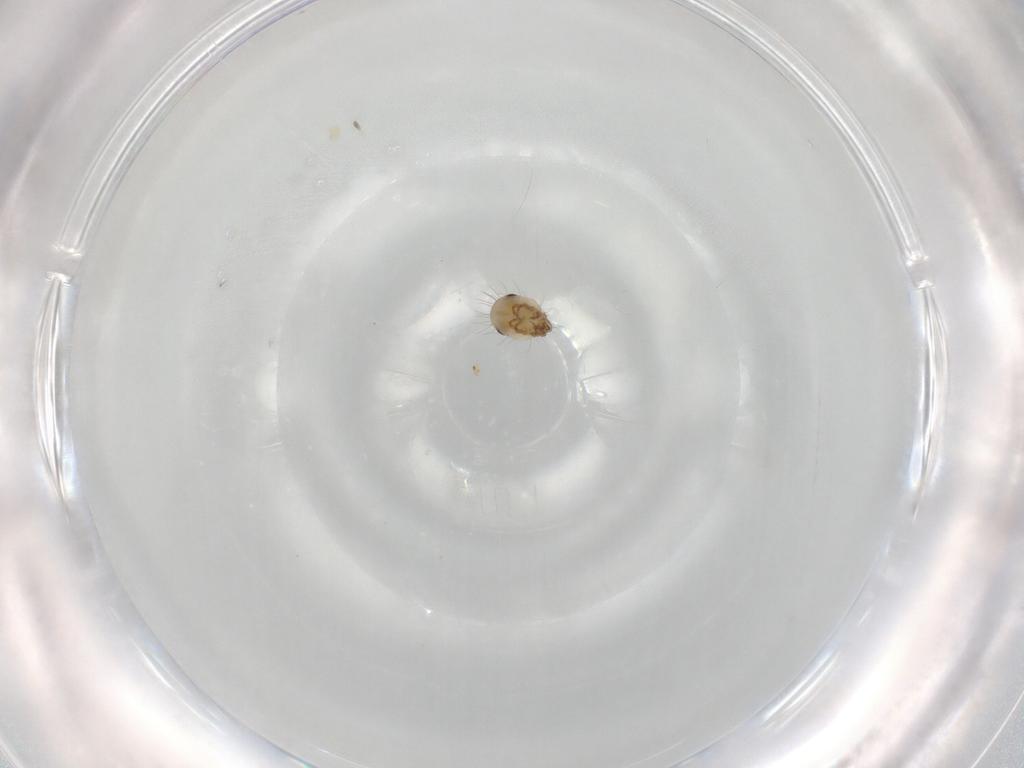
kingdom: Animalia
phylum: Arthropoda
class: Arachnida
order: Sarcoptiformes
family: Humerobatidae
